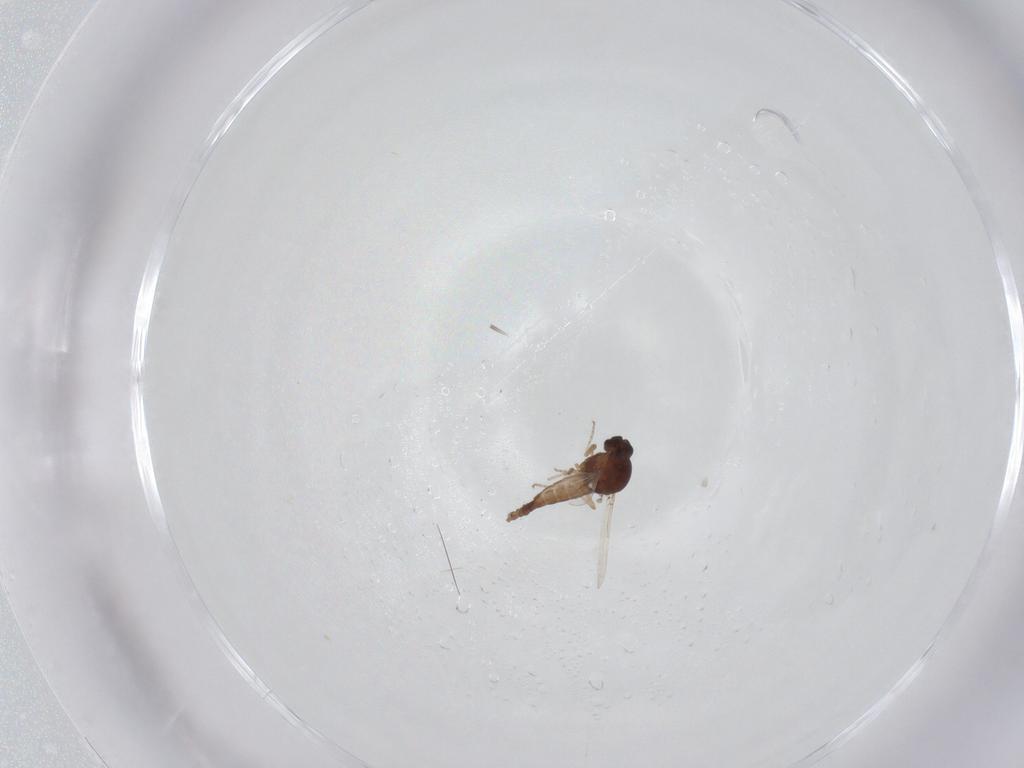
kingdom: Animalia
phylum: Arthropoda
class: Insecta
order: Diptera
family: Ceratopogonidae
